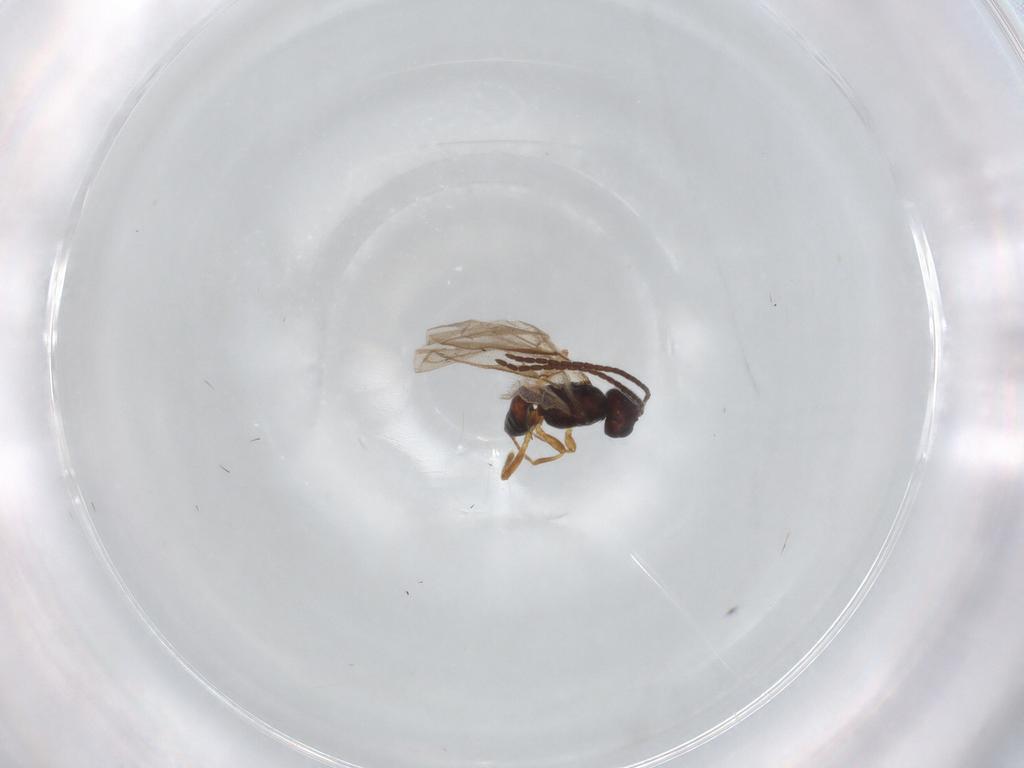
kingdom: Animalia
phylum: Arthropoda
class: Insecta
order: Hymenoptera
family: Braconidae
